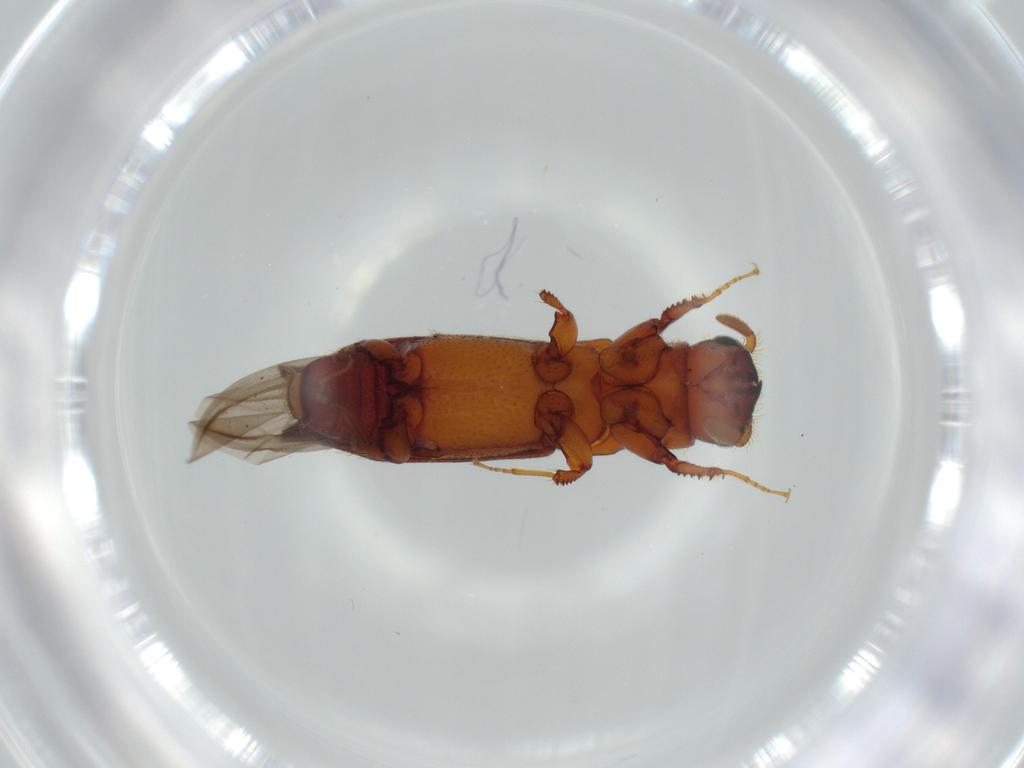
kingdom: Animalia
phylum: Arthropoda
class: Insecta
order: Coleoptera
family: Curculionidae
